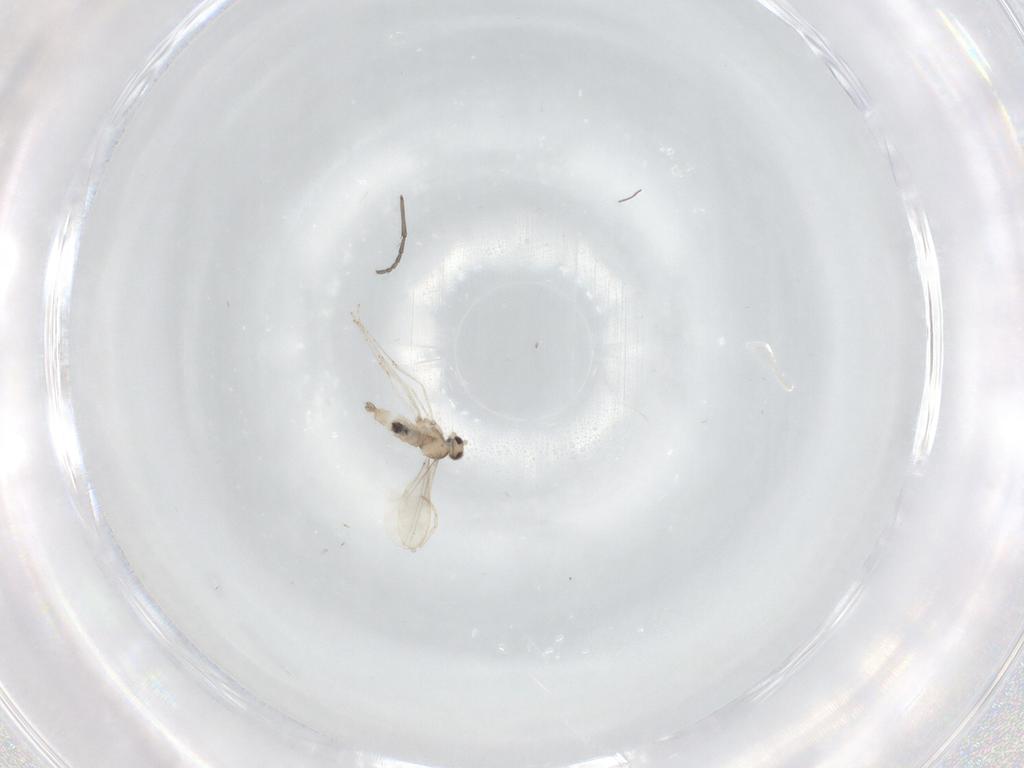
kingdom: Animalia
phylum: Arthropoda
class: Insecta
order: Diptera
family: Cecidomyiidae
